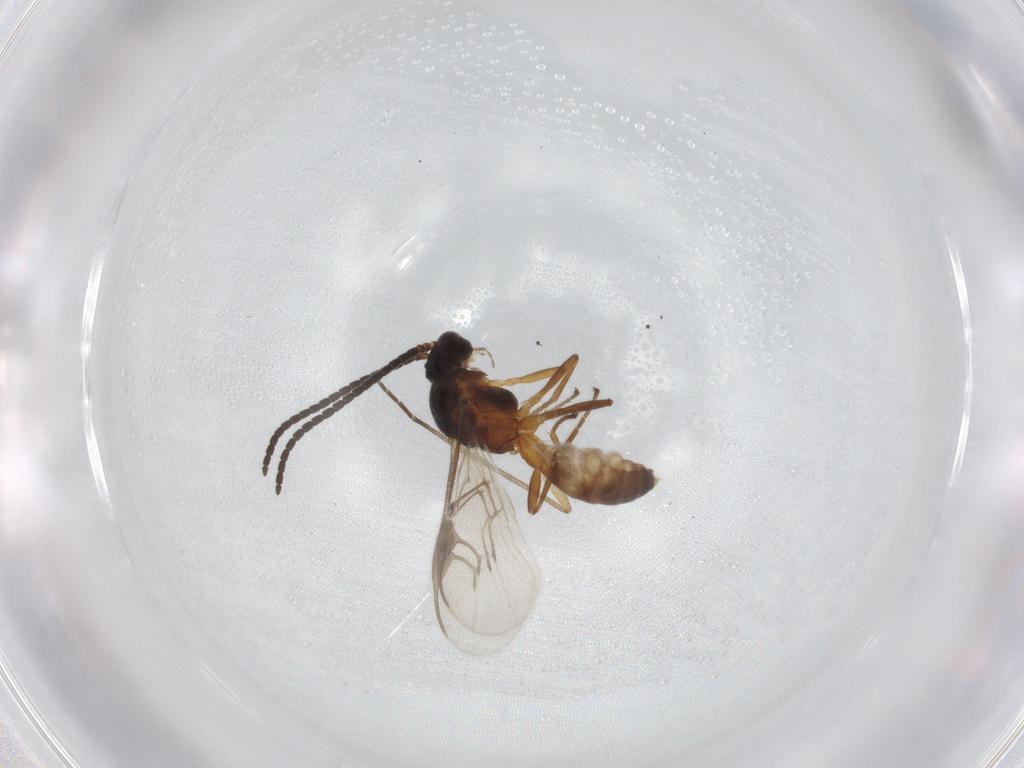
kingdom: Animalia
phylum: Arthropoda
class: Insecta
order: Hymenoptera
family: Braconidae
